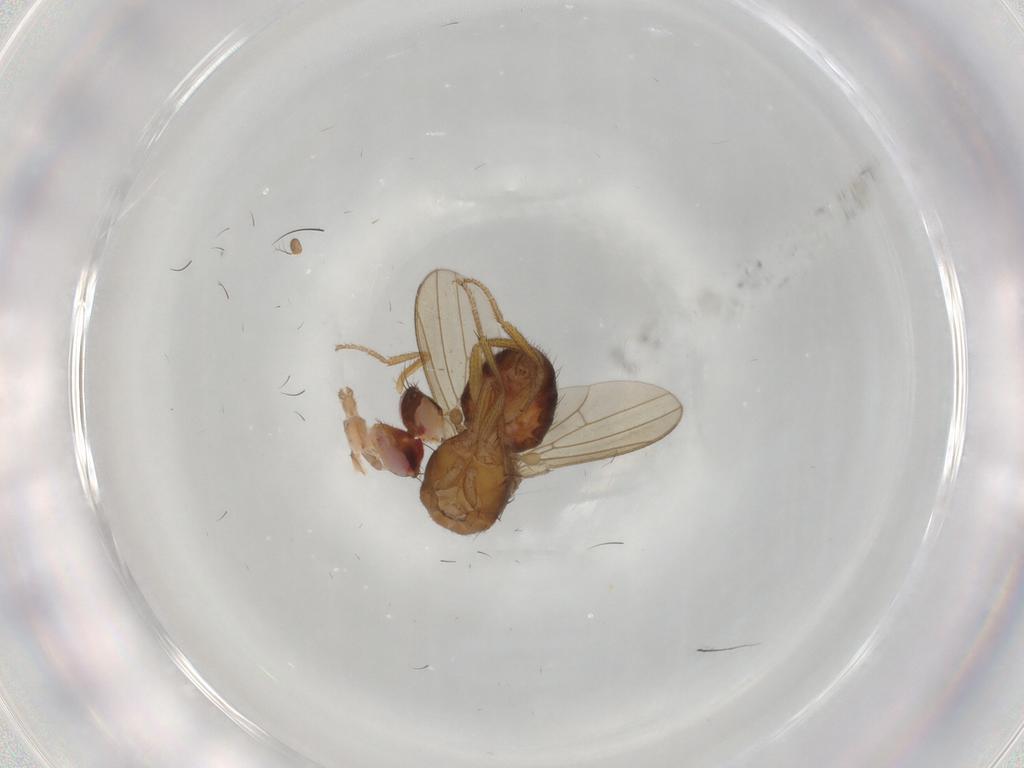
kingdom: Animalia
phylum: Arthropoda
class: Insecta
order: Diptera
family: Drosophilidae
